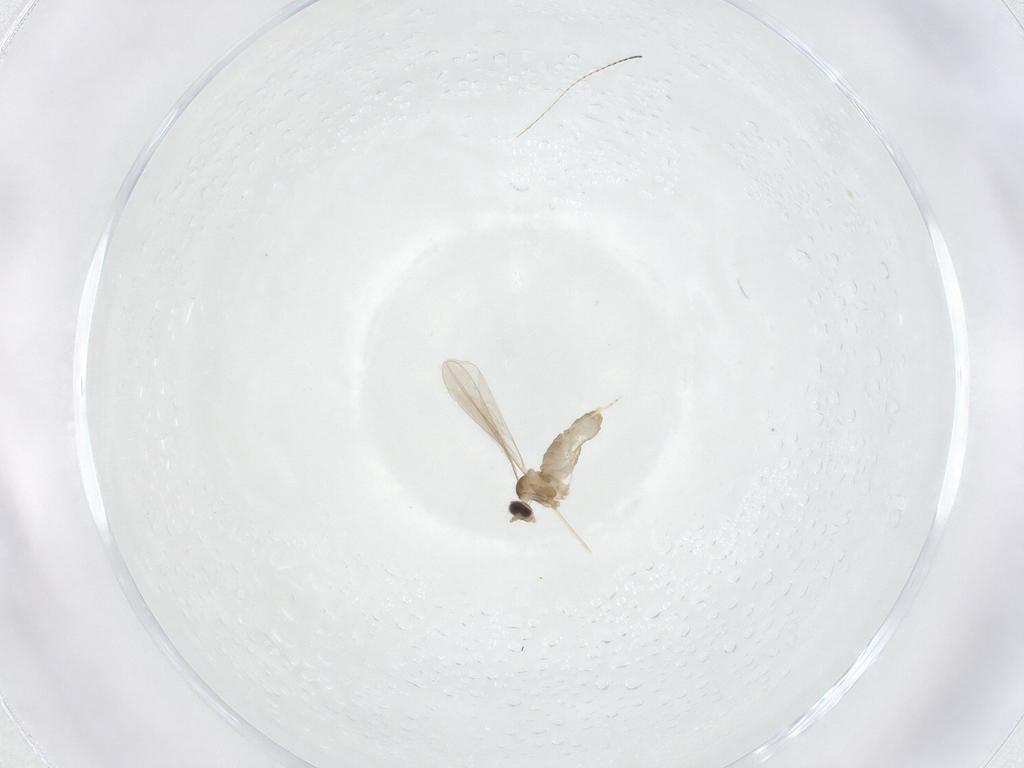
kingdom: Animalia
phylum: Arthropoda
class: Insecta
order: Diptera
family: Cecidomyiidae
